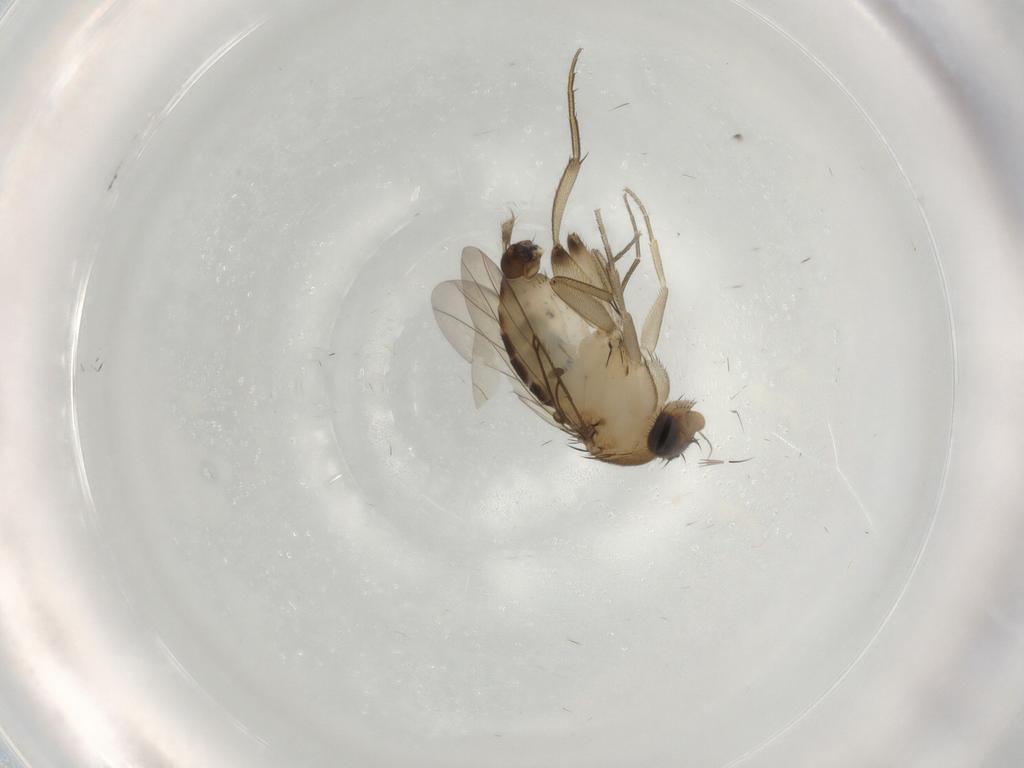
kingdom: Animalia
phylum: Arthropoda
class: Insecta
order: Diptera
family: Phoridae
